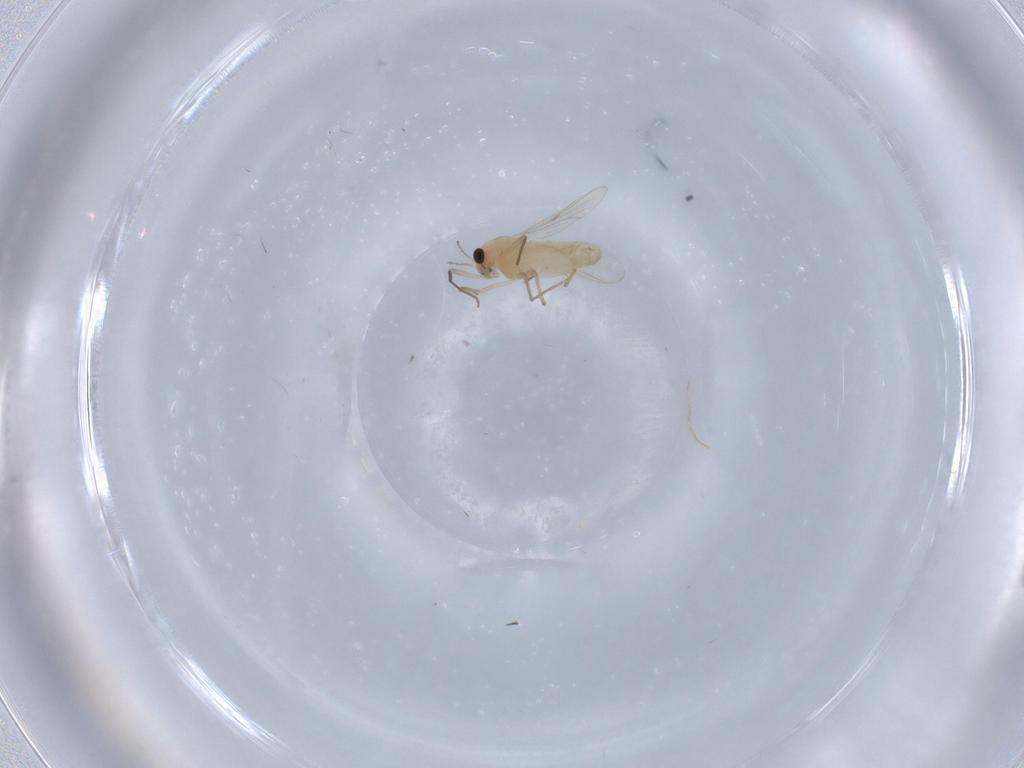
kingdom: Animalia
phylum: Arthropoda
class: Insecta
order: Diptera
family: Chironomidae
